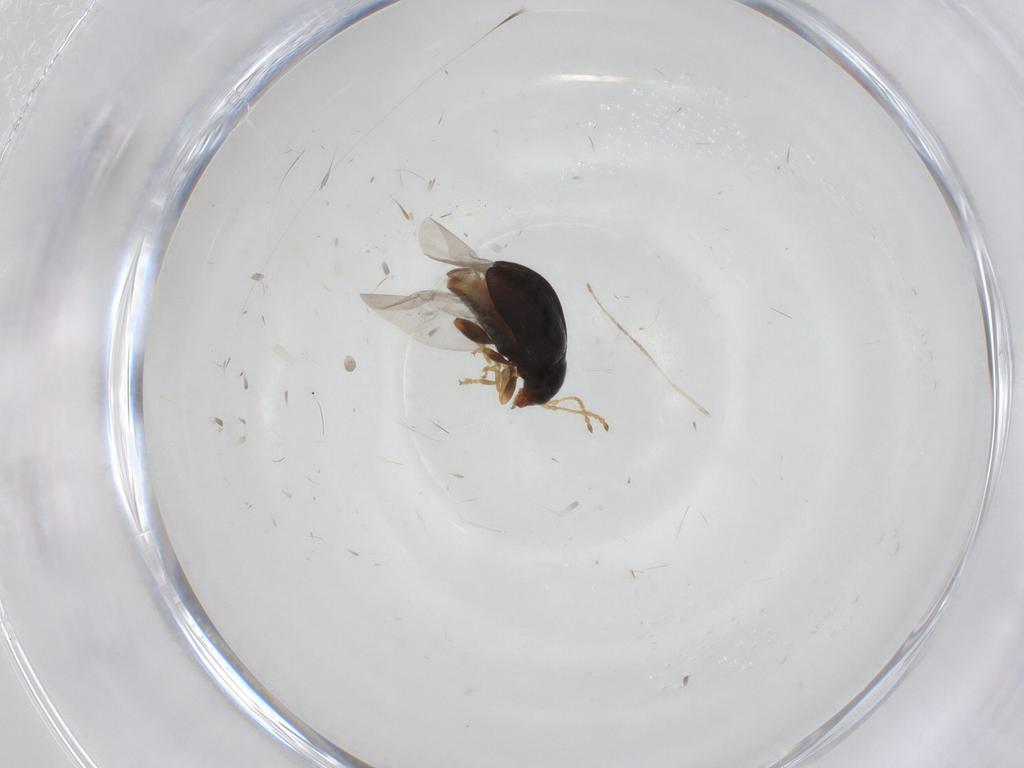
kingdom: Animalia
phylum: Arthropoda
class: Insecta
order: Coleoptera
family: Chrysomelidae
